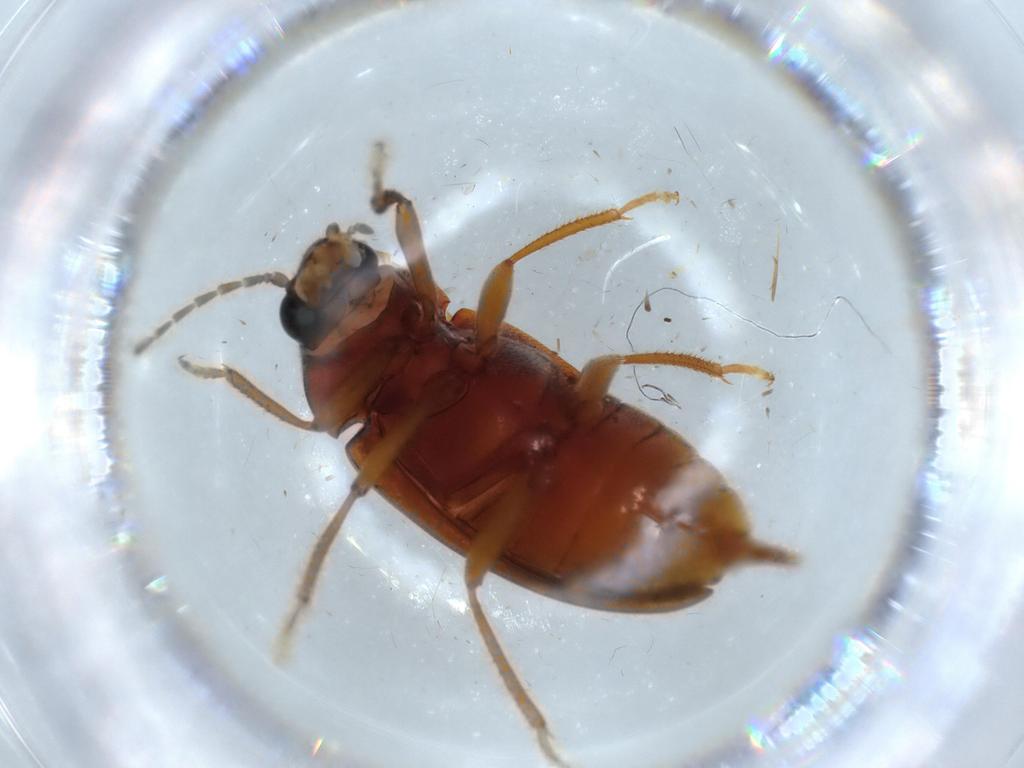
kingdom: Animalia
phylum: Arthropoda
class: Insecta
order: Coleoptera
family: Ptilodactylidae
